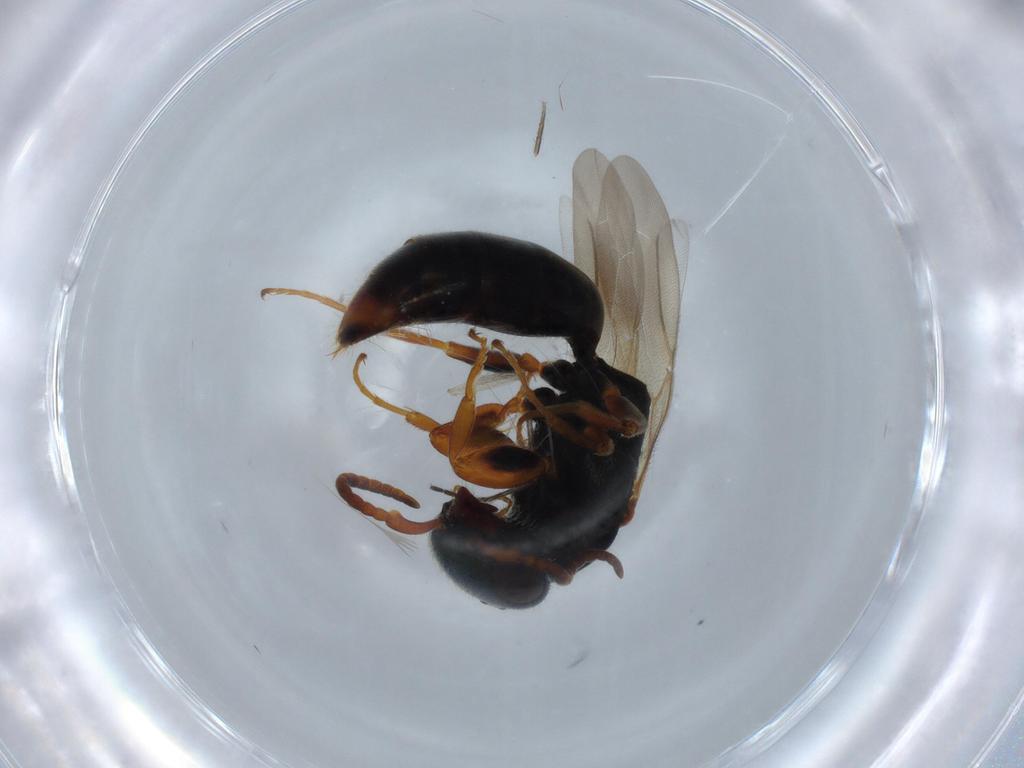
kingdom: Animalia
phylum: Arthropoda
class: Insecta
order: Hymenoptera
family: Bethylidae
